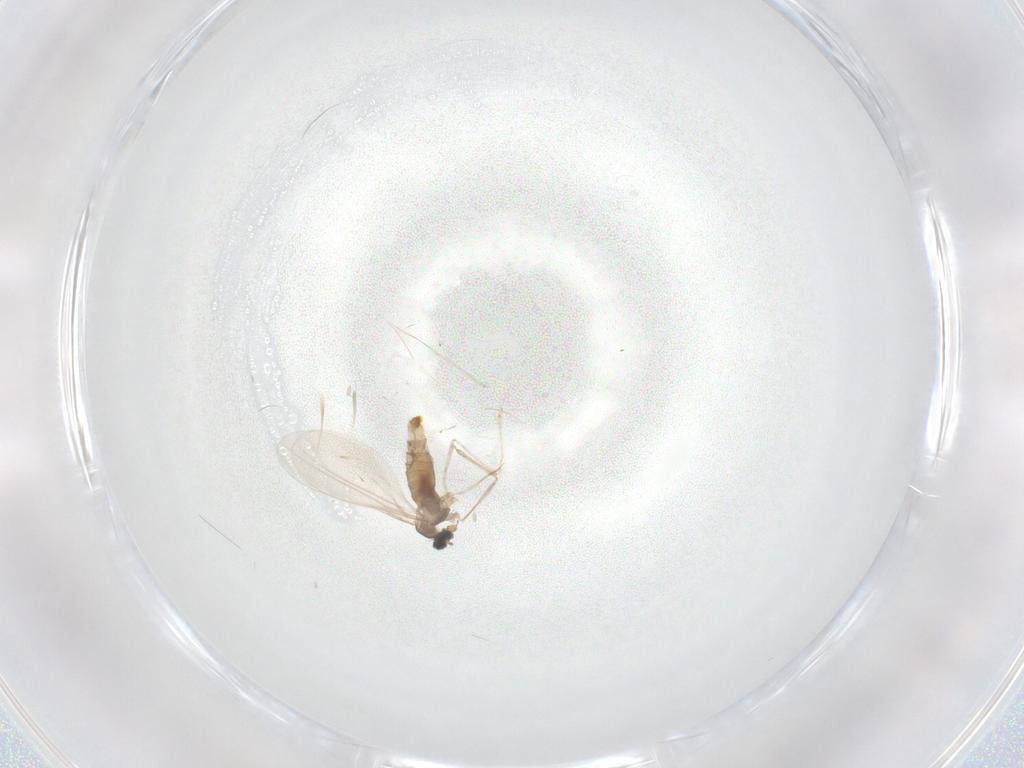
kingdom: Animalia
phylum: Arthropoda
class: Insecta
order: Diptera
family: Cecidomyiidae
